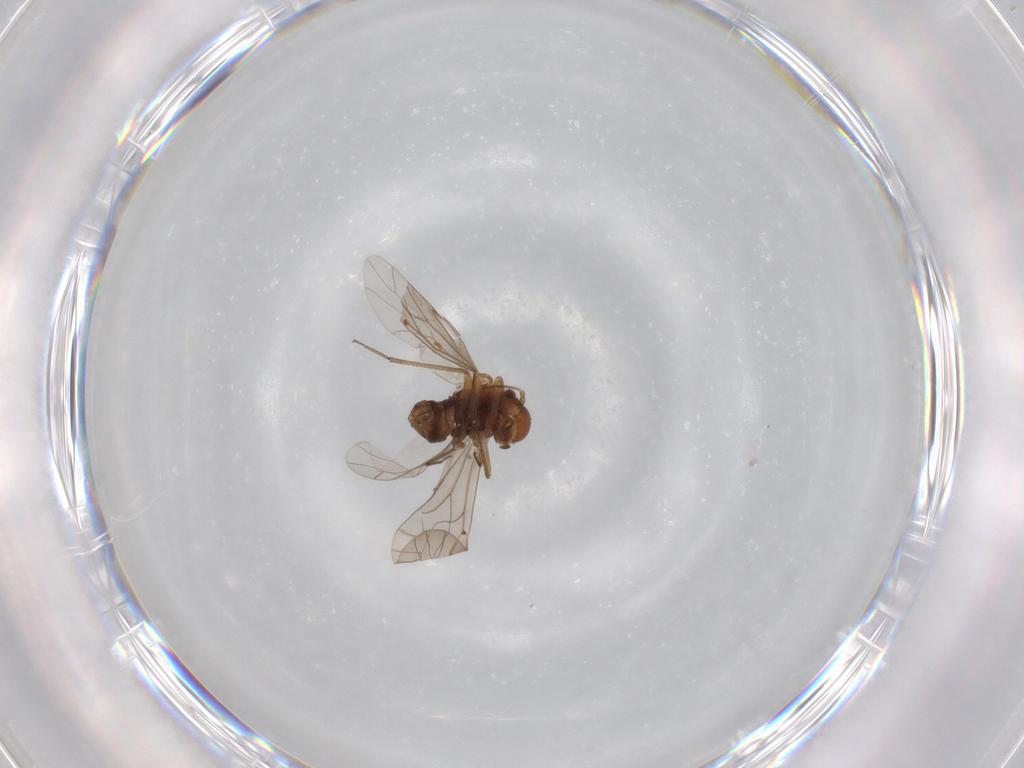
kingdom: Animalia
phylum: Arthropoda
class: Insecta
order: Psocodea
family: Lachesillidae
